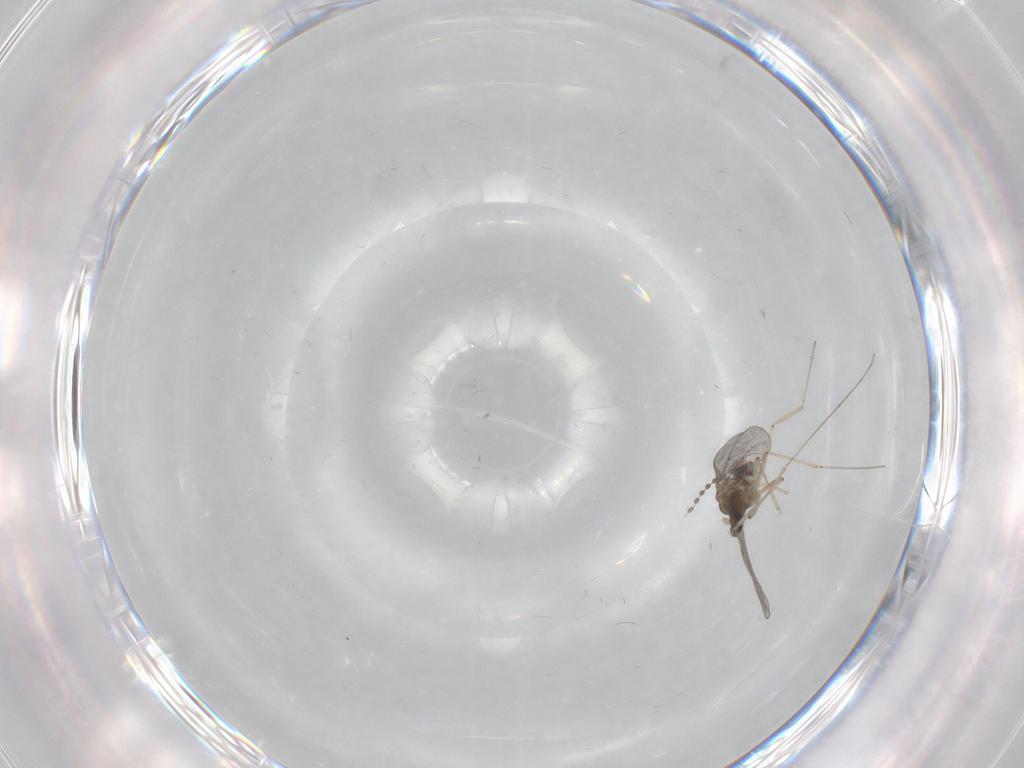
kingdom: Animalia
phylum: Arthropoda
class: Insecta
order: Diptera
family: Cecidomyiidae
